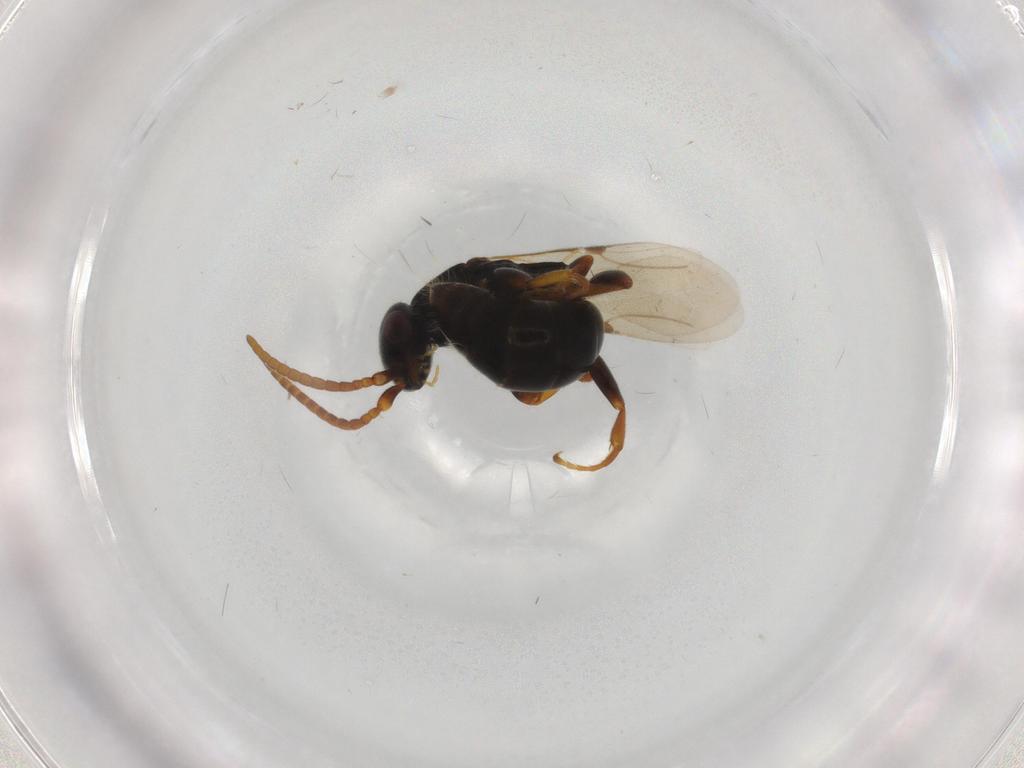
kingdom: Animalia
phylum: Arthropoda
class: Insecta
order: Hymenoptera
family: Bethylidae
